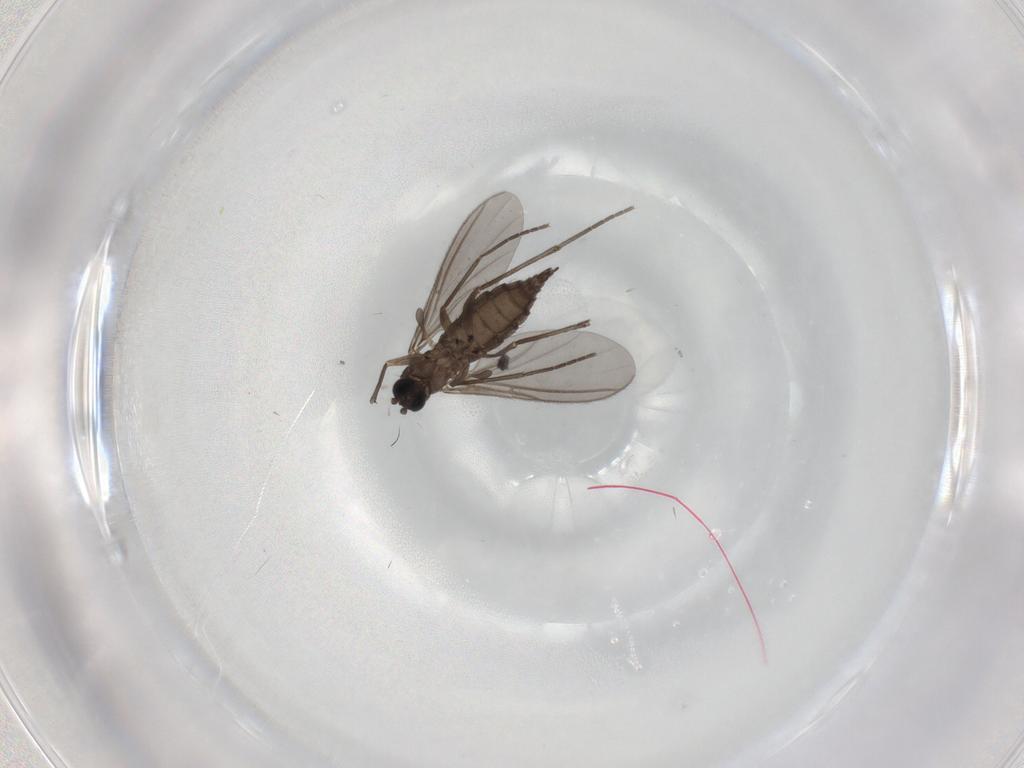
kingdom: Animalia
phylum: Arthropoda
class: Insecta
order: Diptera
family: Sciaridae
